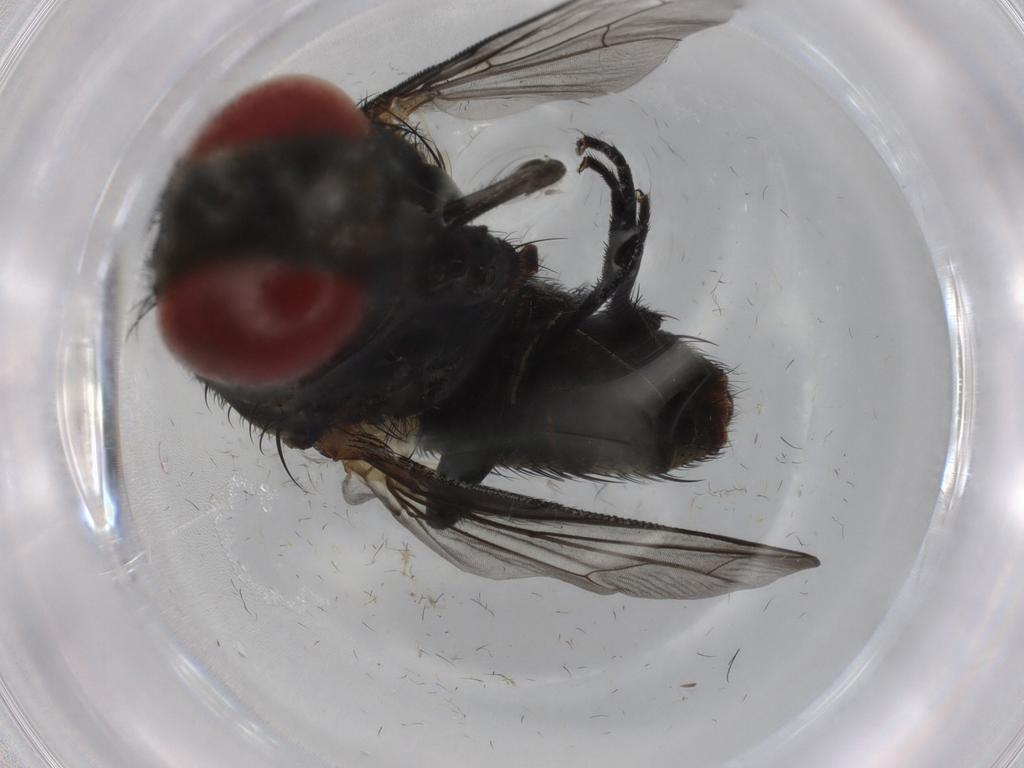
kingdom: Animalia
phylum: Arthropoda
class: Insecta
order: Diptera
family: Sarcophagidae
